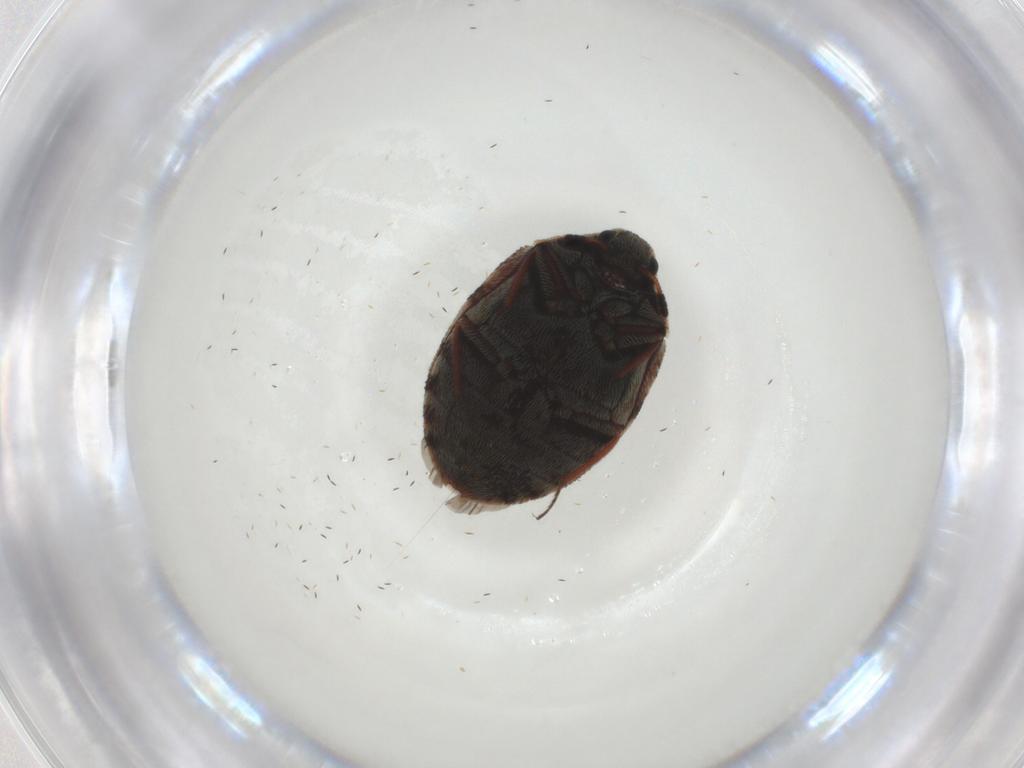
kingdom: Animalia
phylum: Arthropoda
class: Insecta
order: Coleoptera
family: Dermestidae
